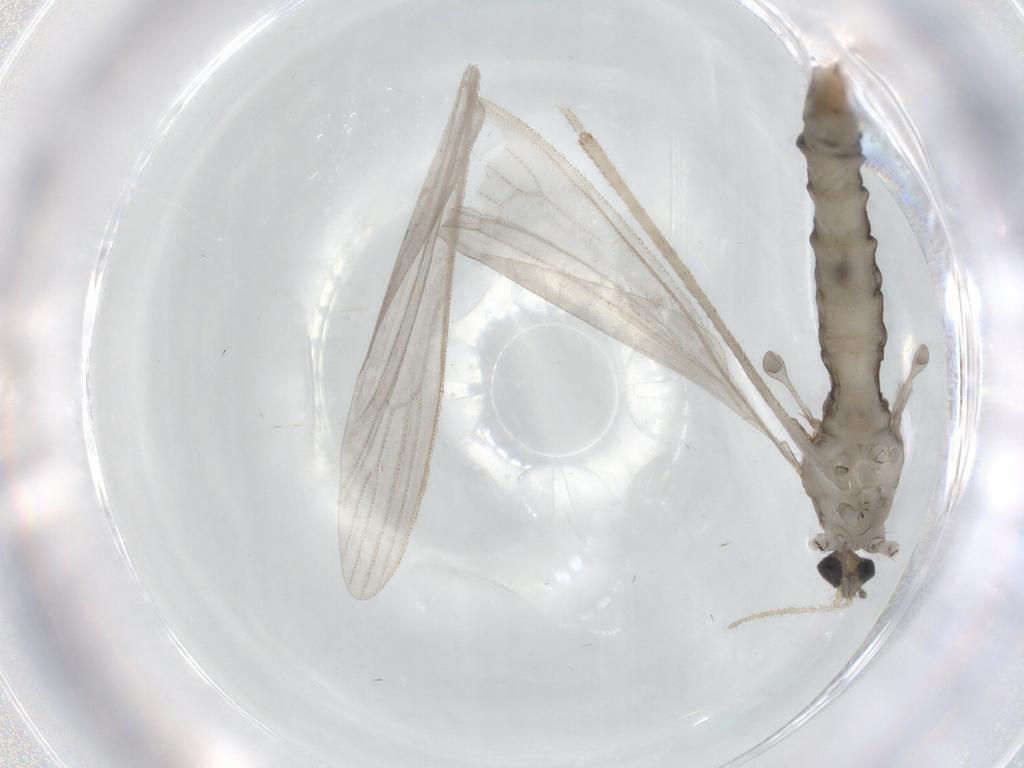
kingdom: Animalia
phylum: Arthropoda
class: Insecta
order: Diptera
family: Limoniidae
